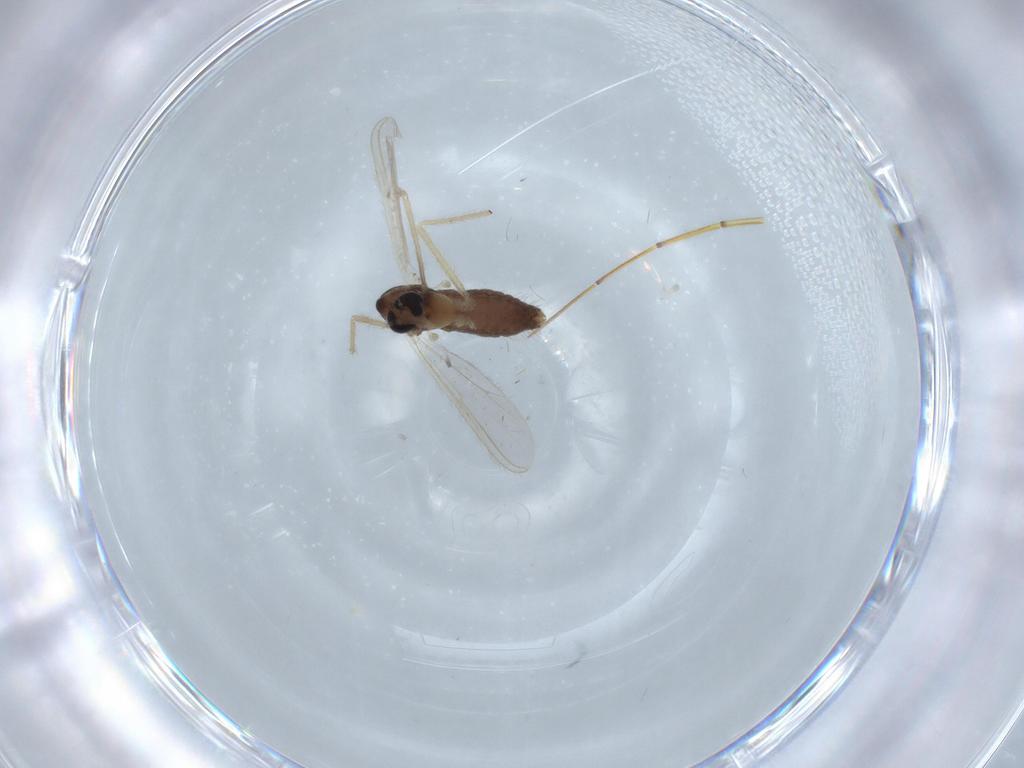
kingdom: Animalia
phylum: Arthropoda
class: Insecta
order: Diptera
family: Chironomidae
